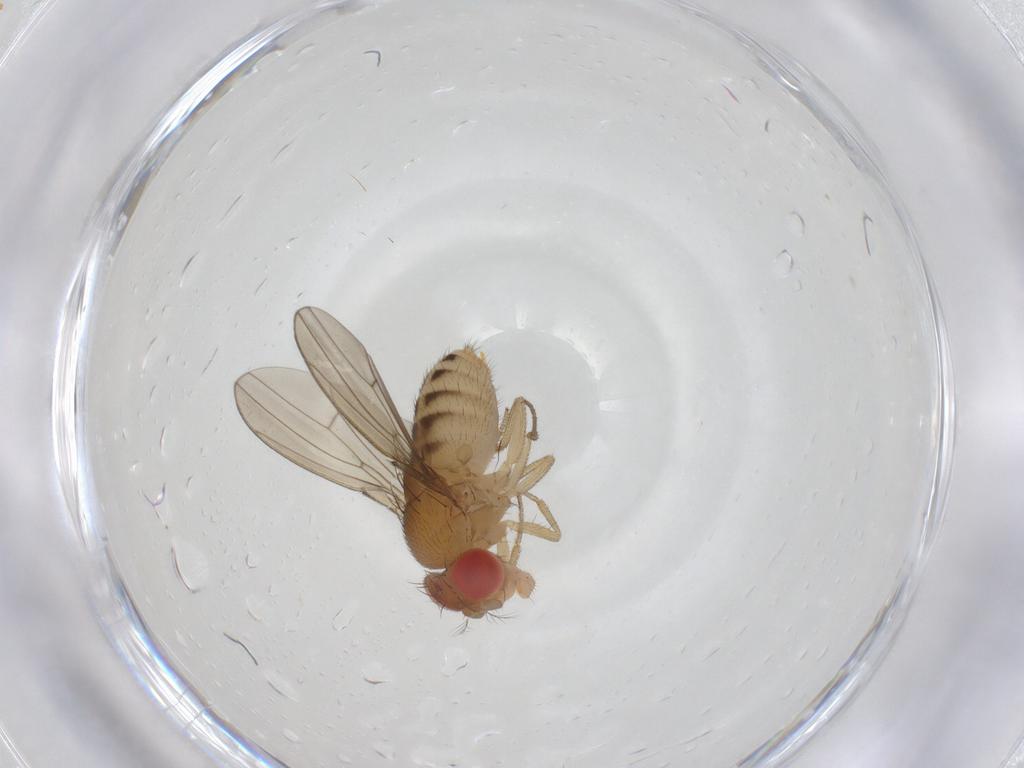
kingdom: Animalia
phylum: Arthropoda
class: Insecta
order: Diptera
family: Drosophilidae
